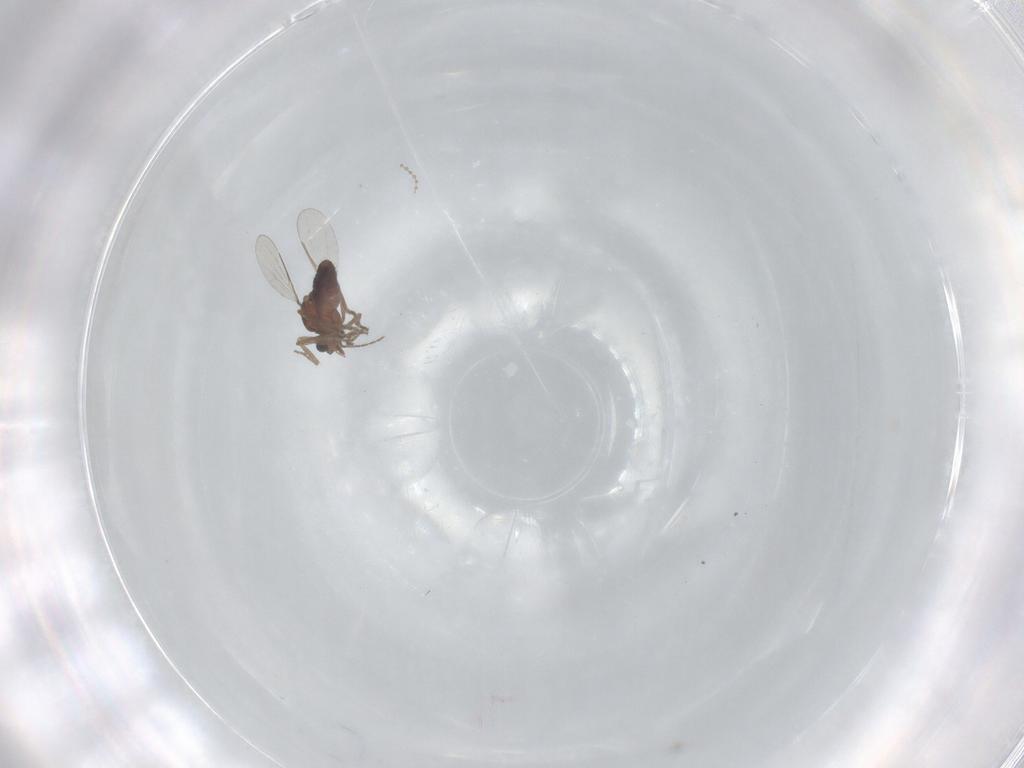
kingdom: Animalia
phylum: Arthropoda
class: Insecta
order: Diptera
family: Ceratopogonidae
